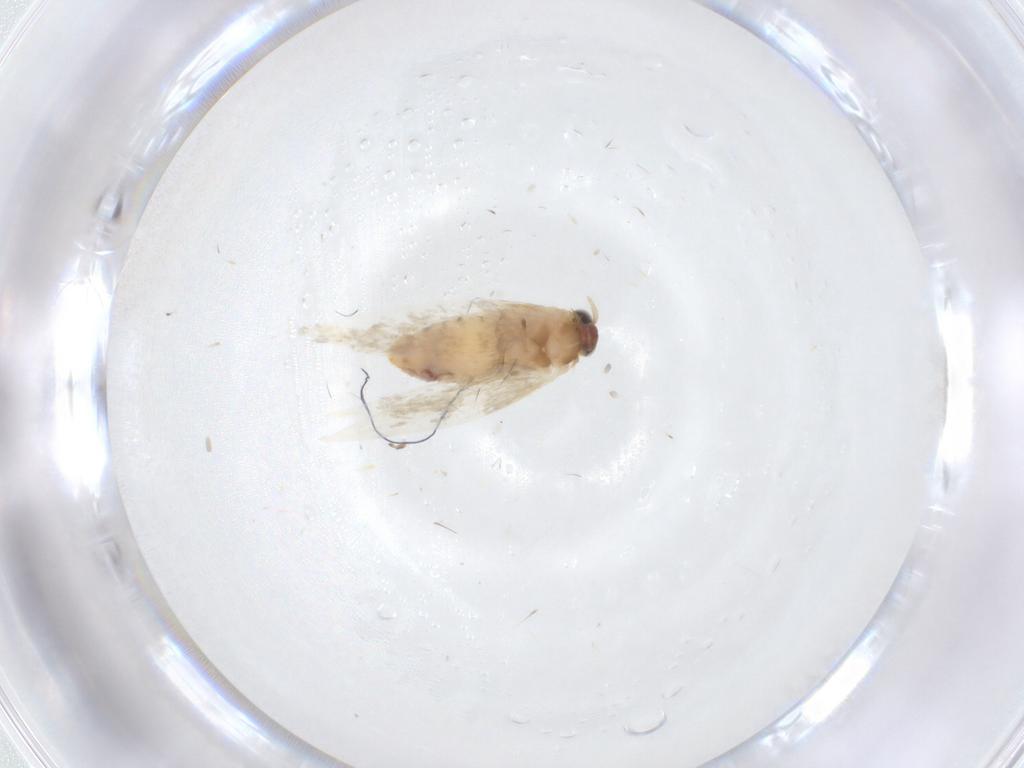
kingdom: Animalia
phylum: Arthropoda
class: Insecta
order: Lepidoptera
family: Nepticulidae
